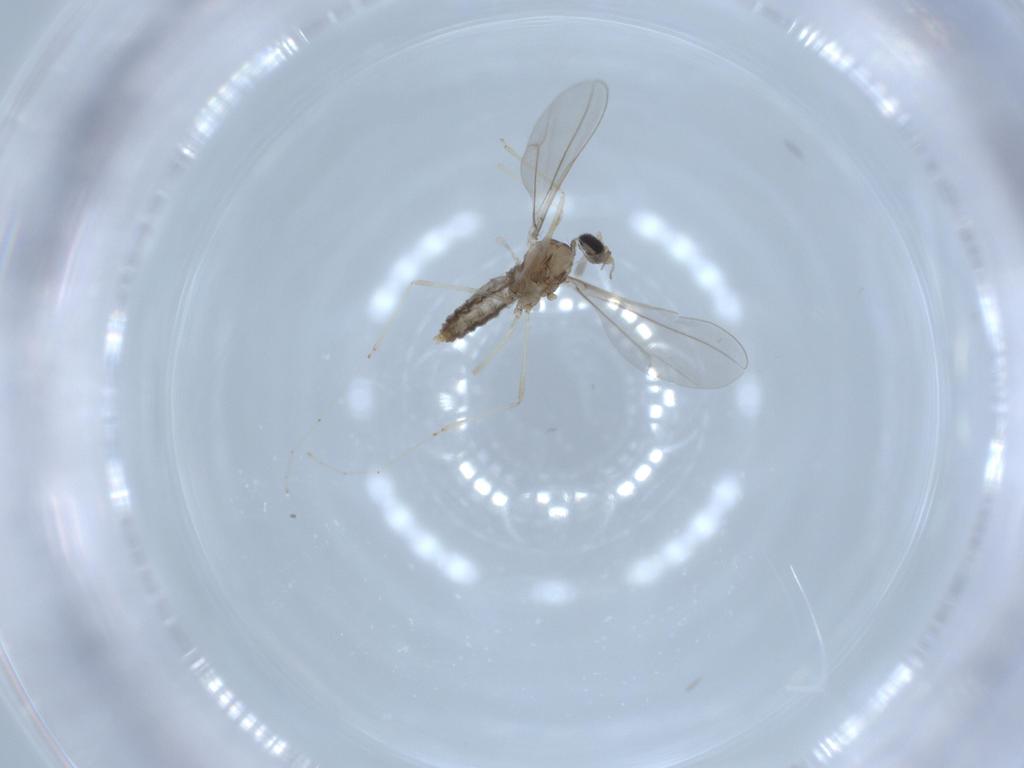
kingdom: Animalia
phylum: Arthropoda
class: Insecta
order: Diptera
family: Cecidomyiidae
